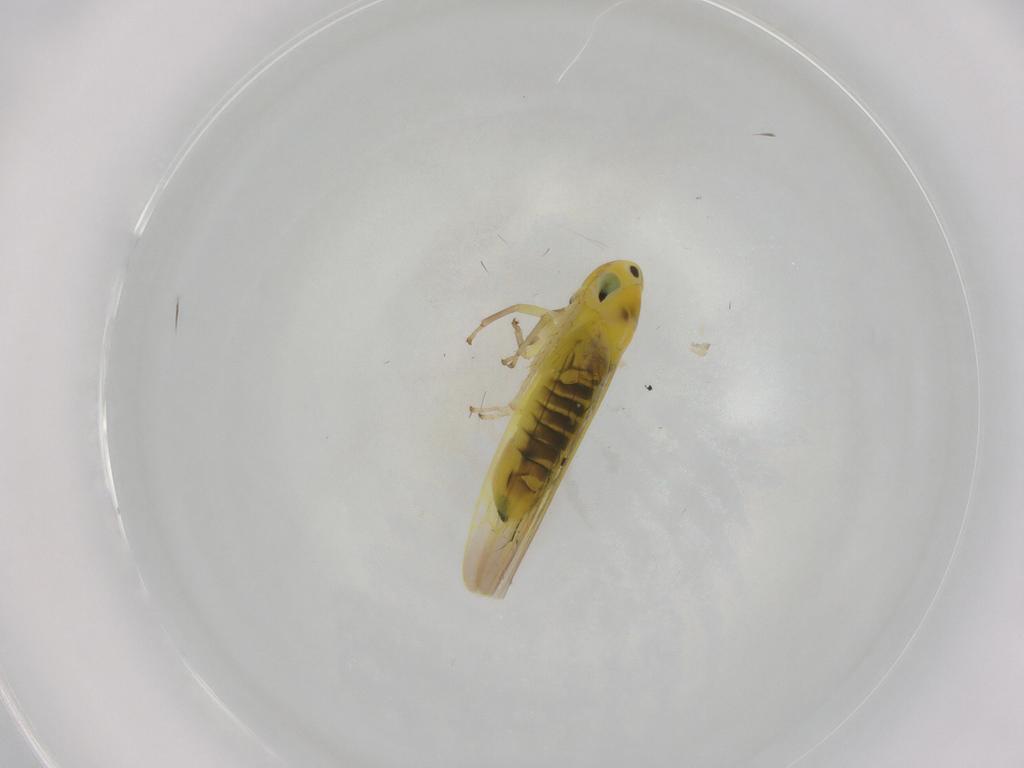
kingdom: Animalia
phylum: Arthropoda
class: Insecta
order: Hemiptera
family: Cicadellidae
